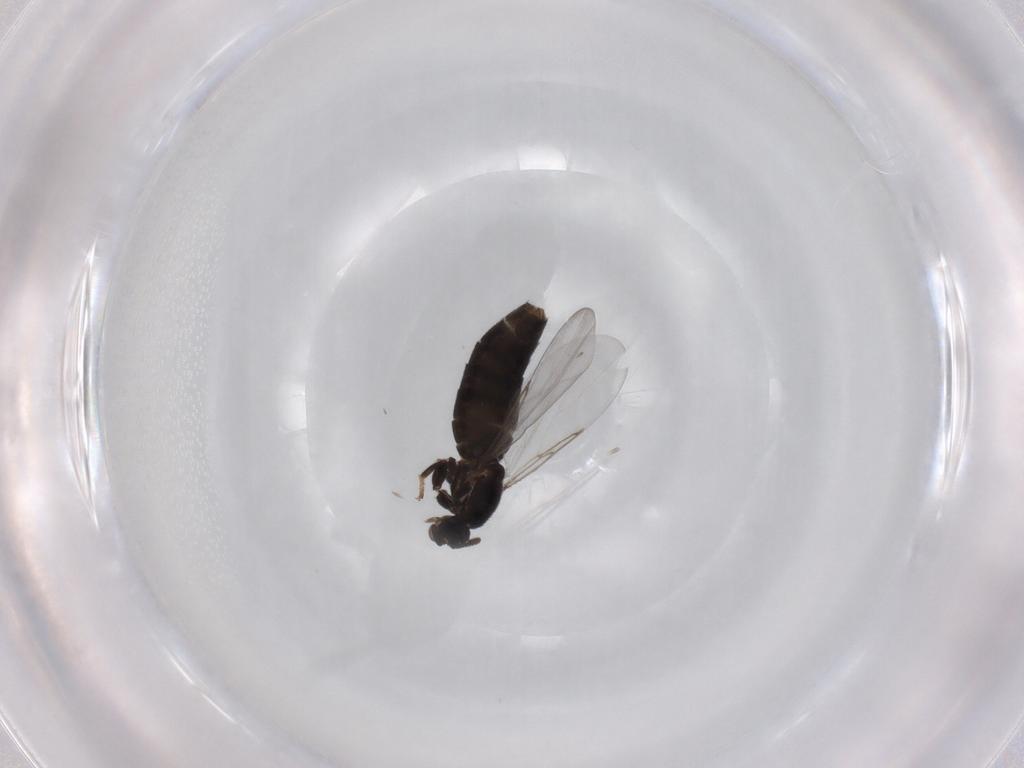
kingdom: Animalia
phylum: Arthropoda
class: Insecta
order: Diptera
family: Scatopsidae
